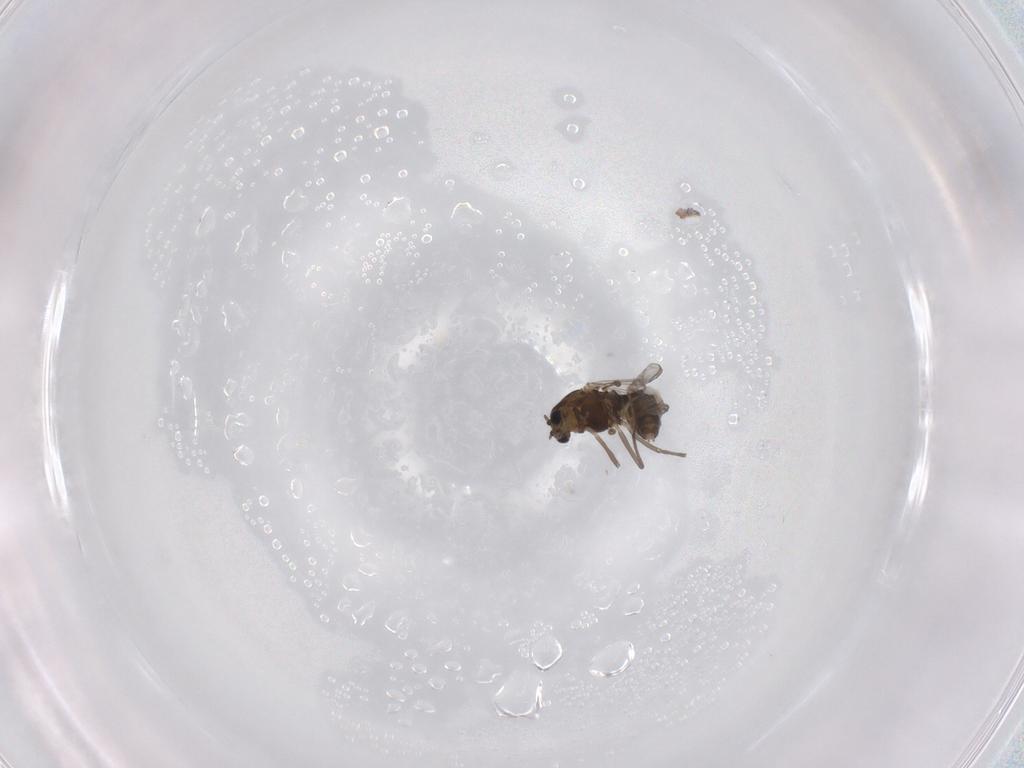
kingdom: Animalia
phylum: Arthropoda
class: Insecta
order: Diptera
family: Chironomidae
